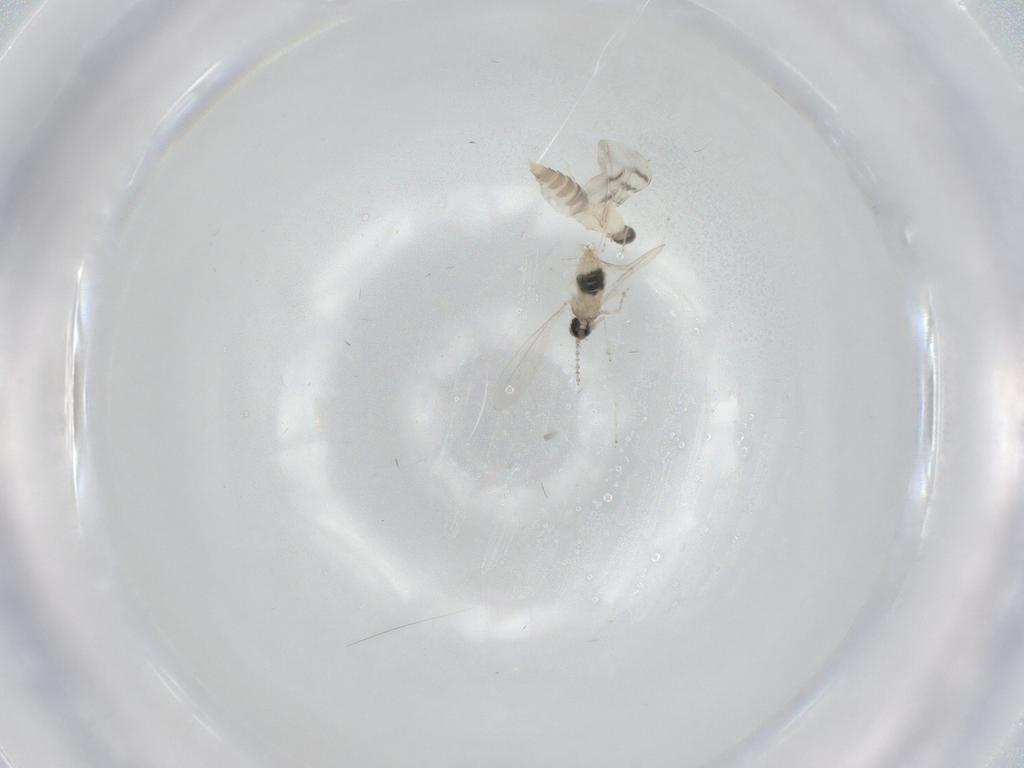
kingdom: Animalia
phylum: Arthropoda
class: Insecta
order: Diptera
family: Cecidomyiidae
